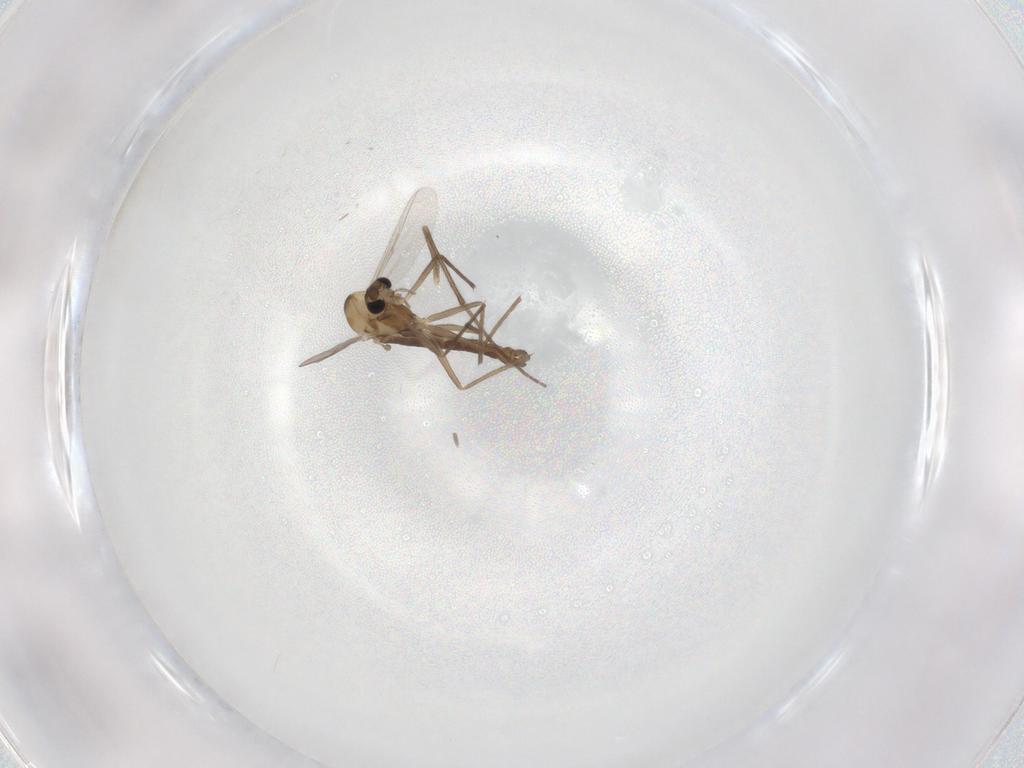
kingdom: Animalia
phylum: Arthropoda
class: Insecta
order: Diptera
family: Chironomidae
